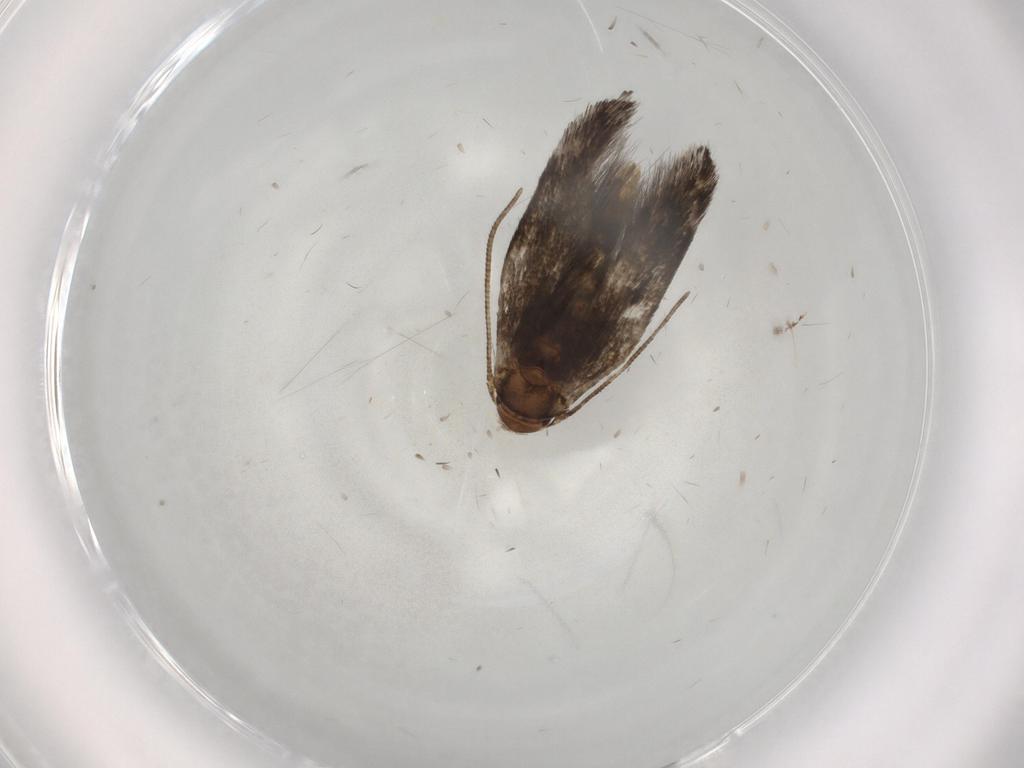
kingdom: Animalia
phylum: Arthropoda
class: Insecta
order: Lepidoptera
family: Gelechiidae
